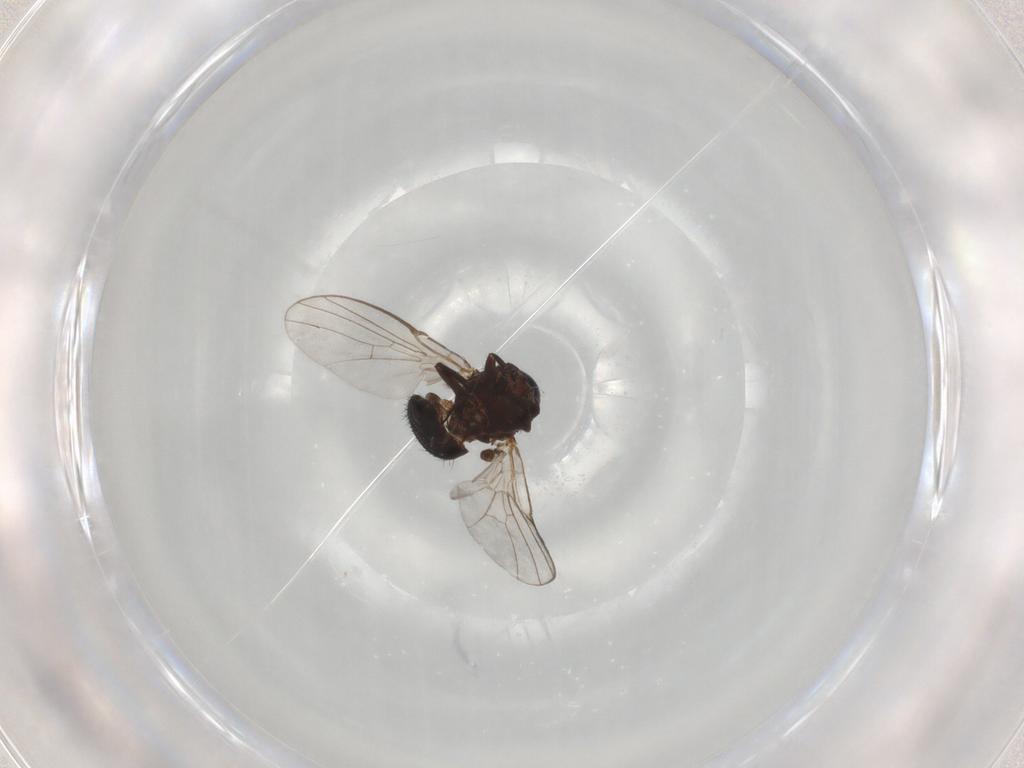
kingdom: Animalia
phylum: Arthropoda
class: Insecta
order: Diptera
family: Agromyzidae
